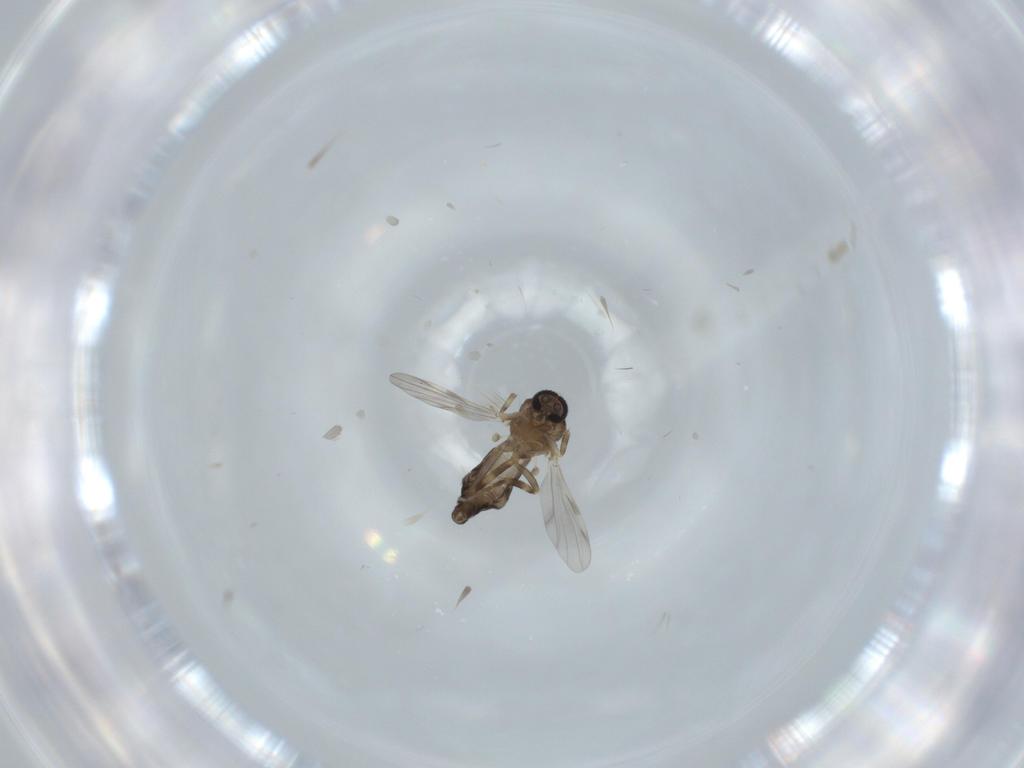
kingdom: Animalia
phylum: Arthropoda
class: Insecta
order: Diptera
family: Ceratopogonidae
